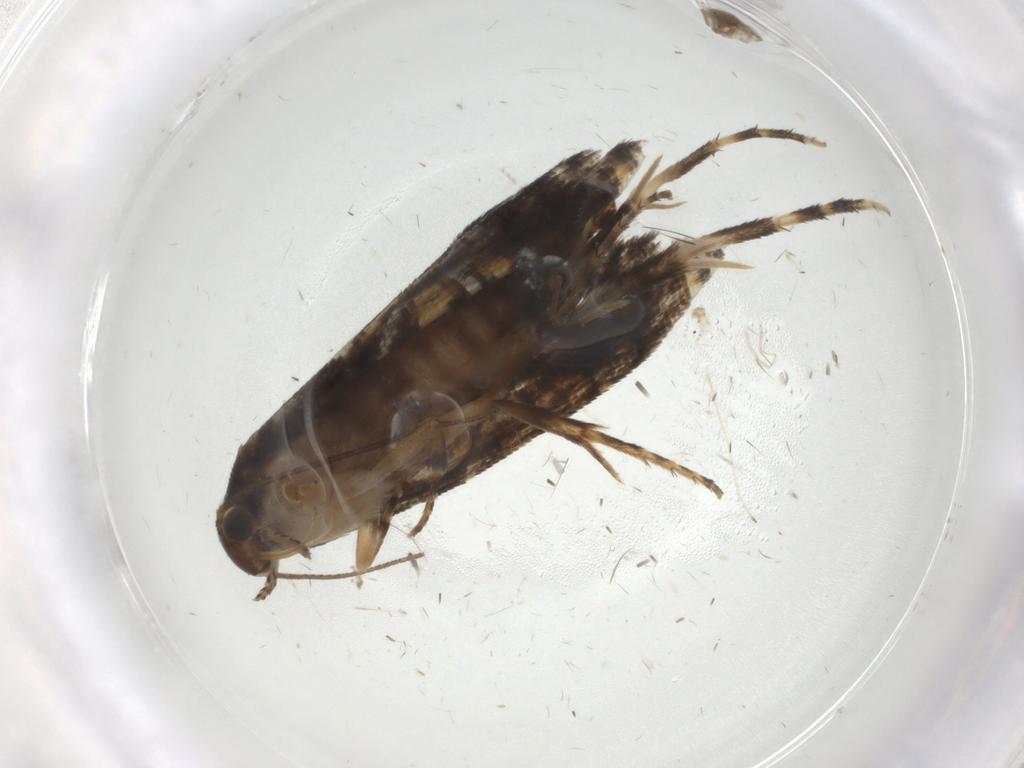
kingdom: Animalia
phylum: Arthropoda
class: Insecta
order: Lepidoptera
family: Glyphipterigidae
